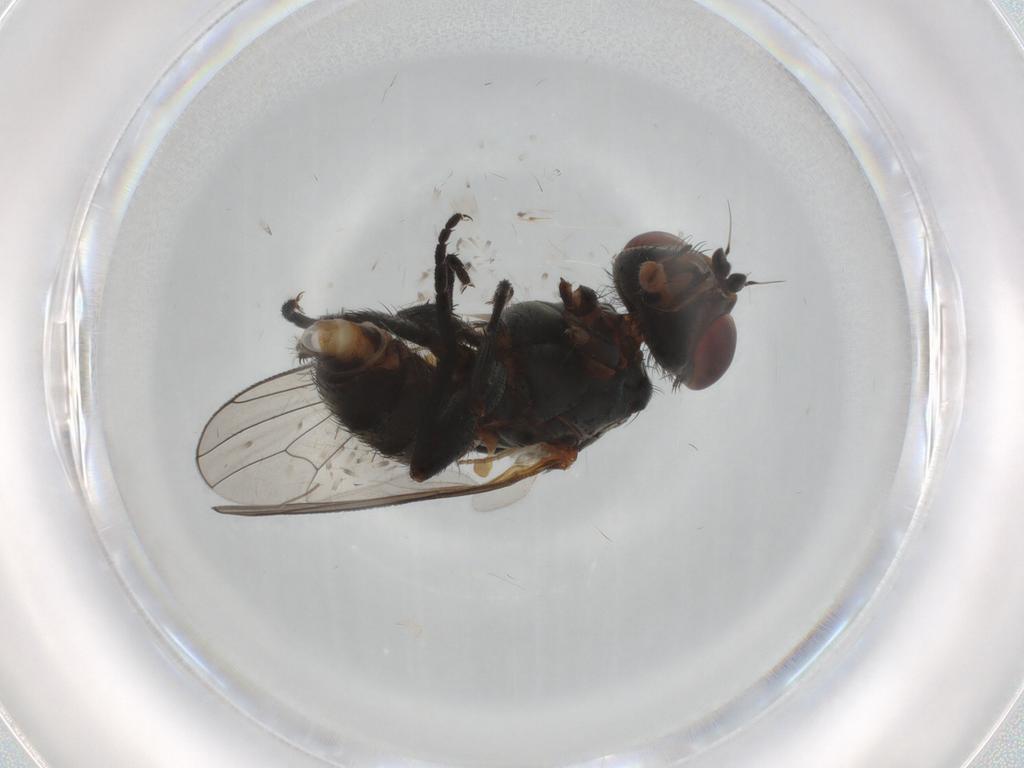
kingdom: Animalia
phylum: Arthropoda
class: Insecta
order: Diptera
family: Anthomyiidae
